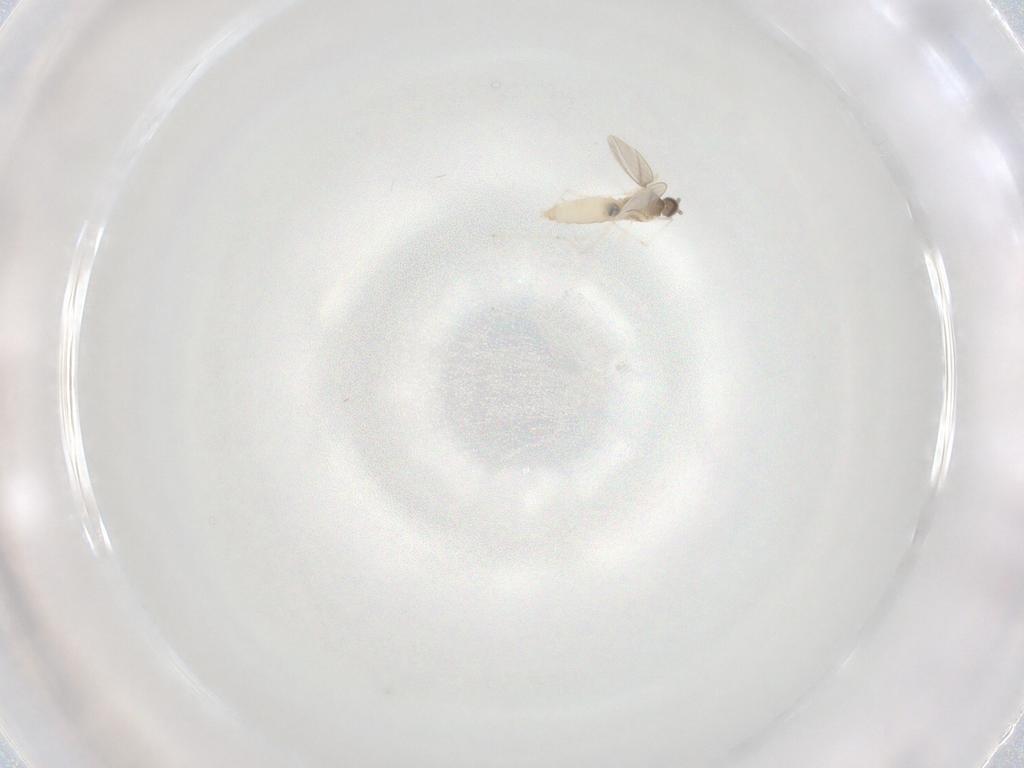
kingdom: Animalia
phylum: Arthropoda
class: Insecta
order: Diptera
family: Cecidomyiidae
